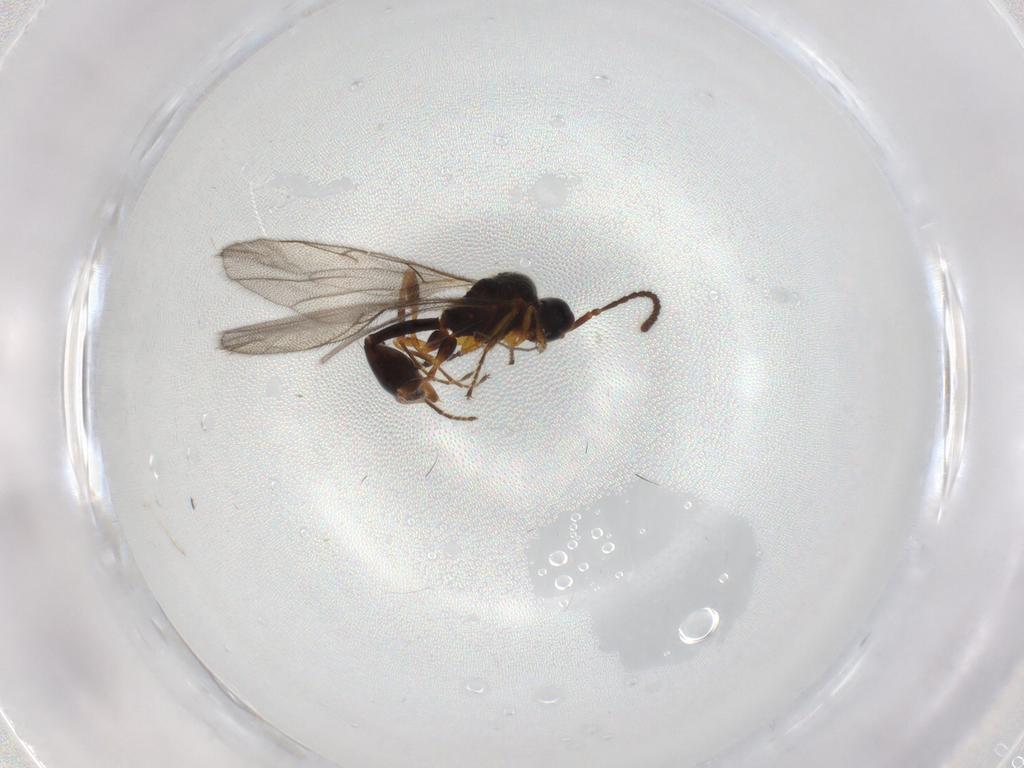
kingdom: Animalia
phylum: Arthropoda
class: Insecta
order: Hymenoptera
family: Diapriidae
